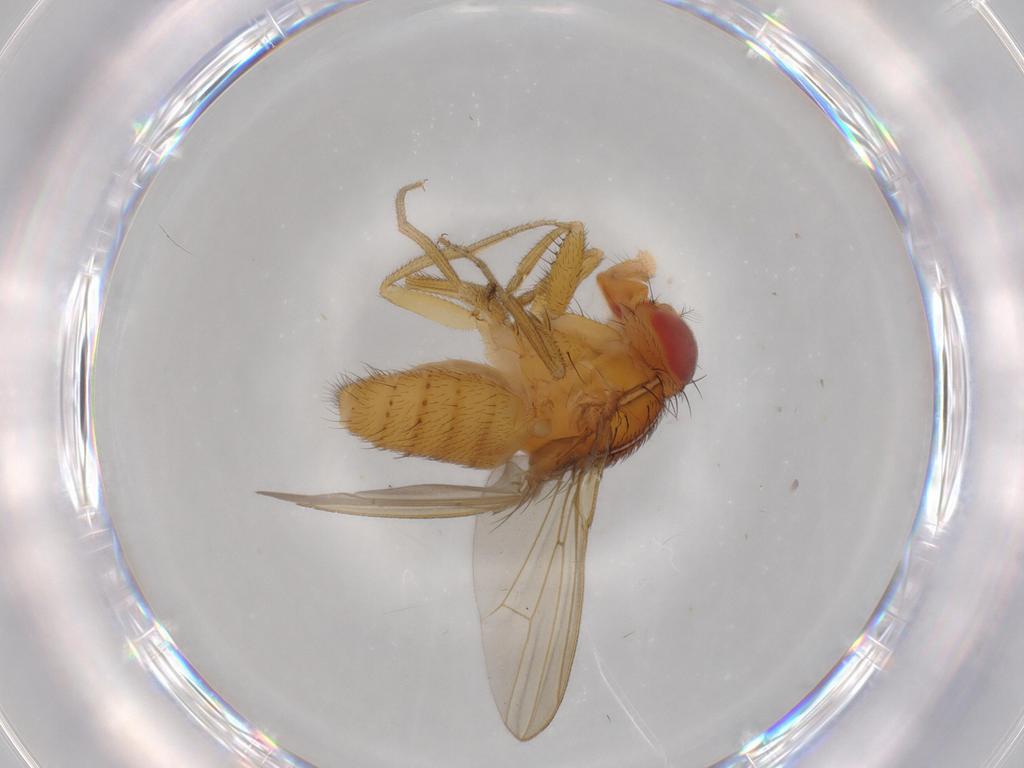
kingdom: Animalia
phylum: Arthropoda
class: Insecta
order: Diptera
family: Drosophilidae
